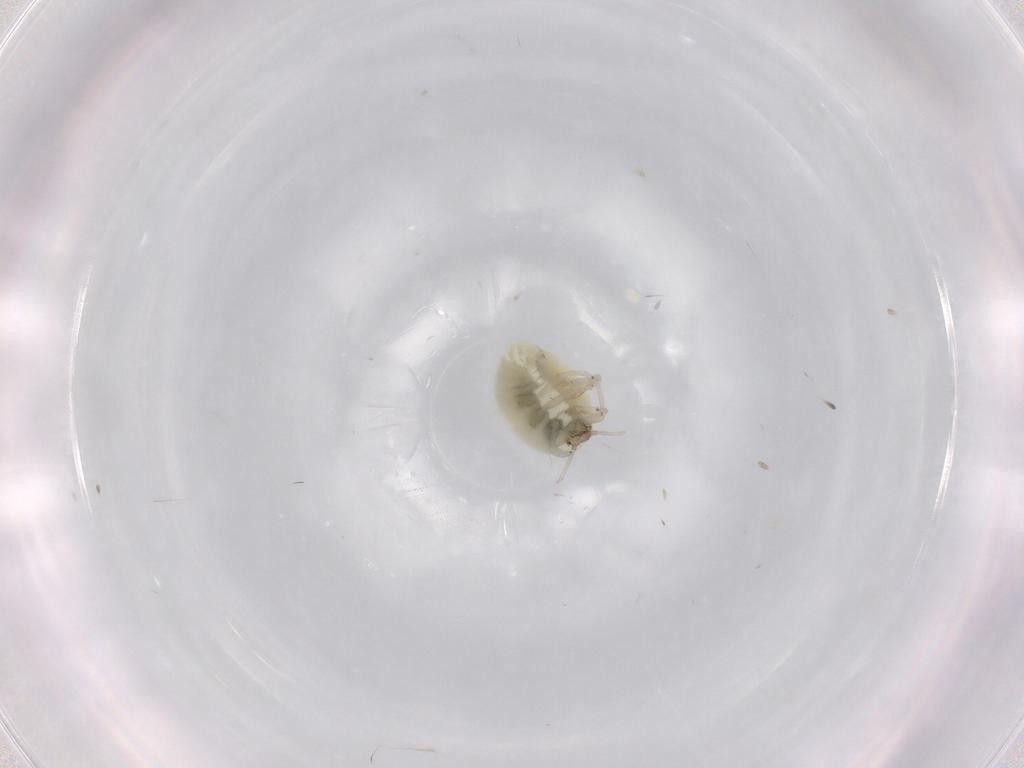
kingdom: Animalia
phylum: Arthropoda
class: Insecta
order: Neuroptera
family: Coniopterygidae
